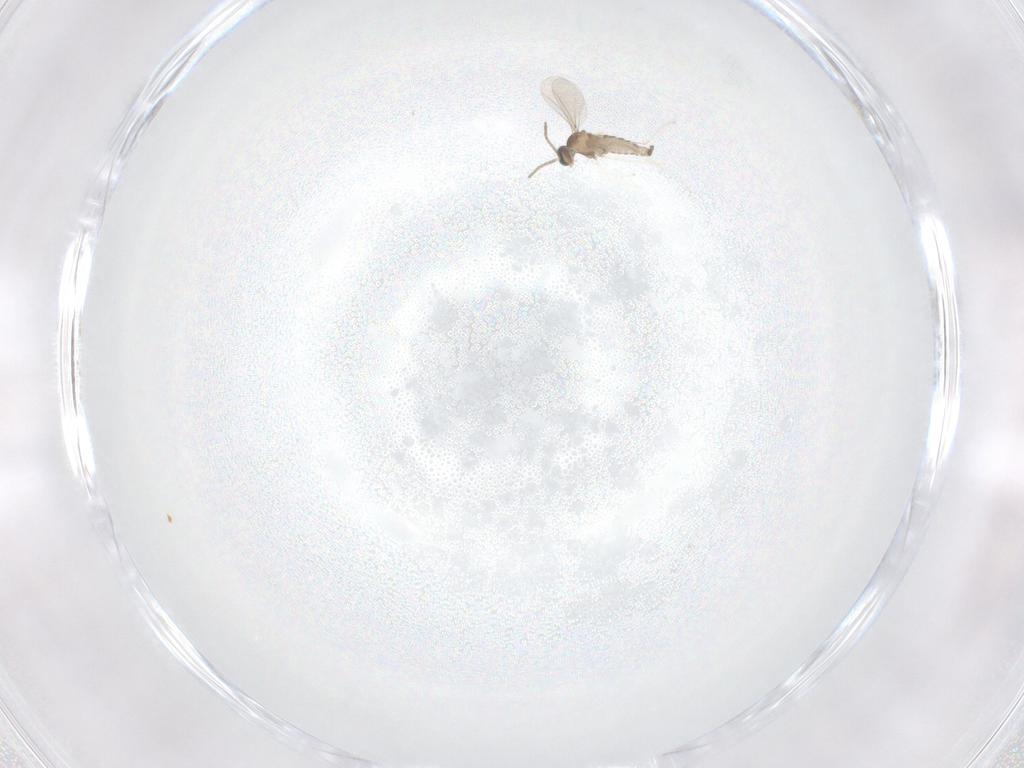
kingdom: Animalia
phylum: Arthropoda
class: Insecta
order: Diptera
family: Cecidomyiidae
